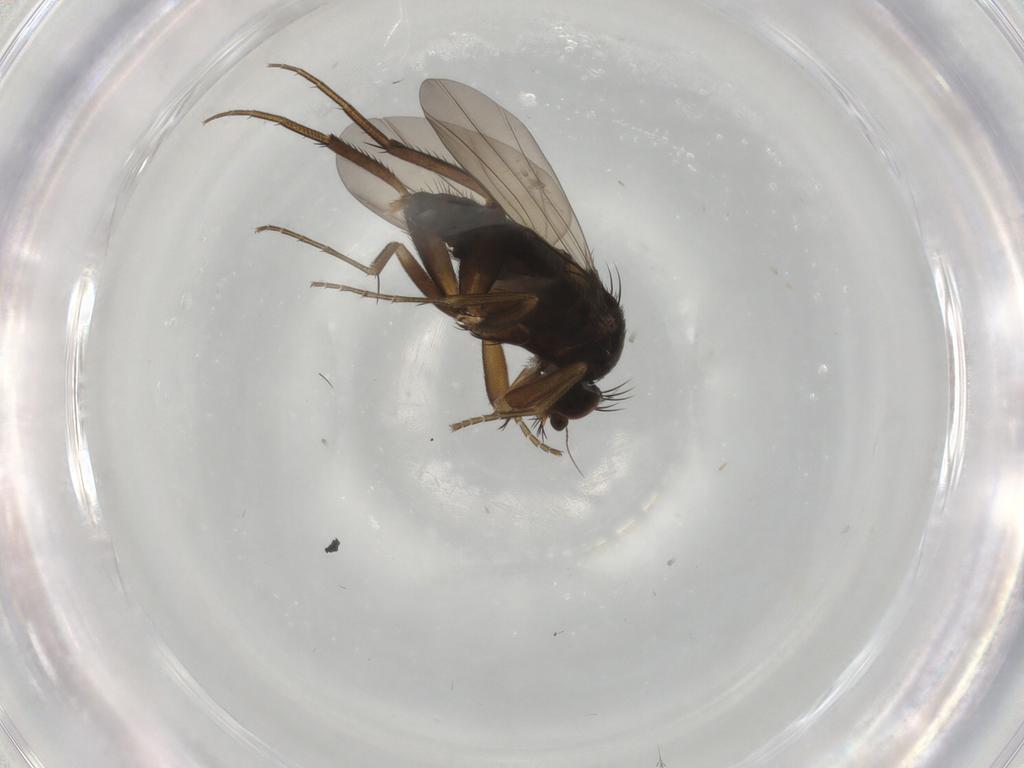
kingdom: Animalia
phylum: Arthropoda
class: Insecta
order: Diptera
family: Phoridae
